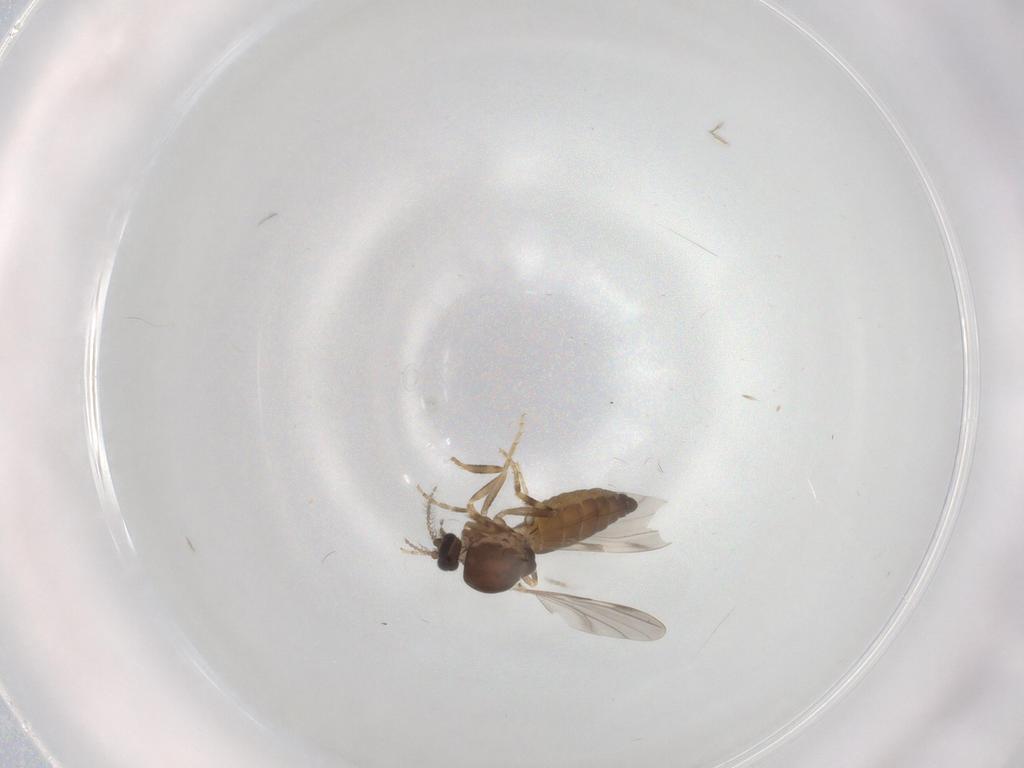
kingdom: Animalia
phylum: Arthropoda
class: Insecta
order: Diptera
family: Ceratopogonidae
